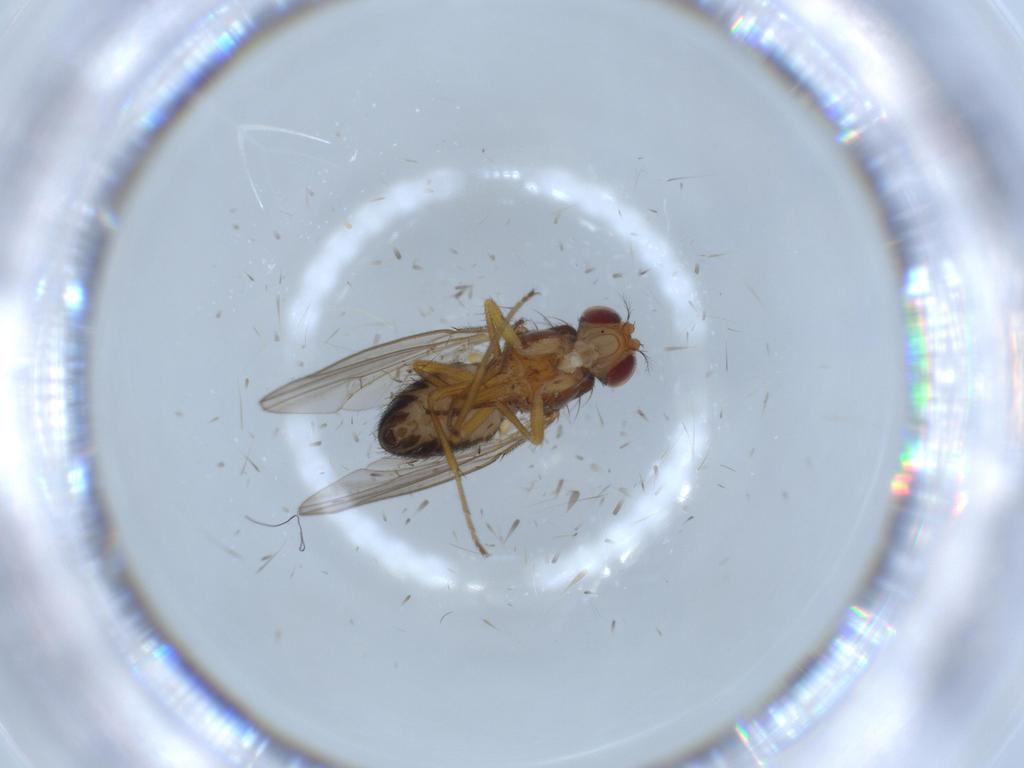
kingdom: Animalia
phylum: Arthropoda
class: Insecta
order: Diptera
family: Drosophilidae
